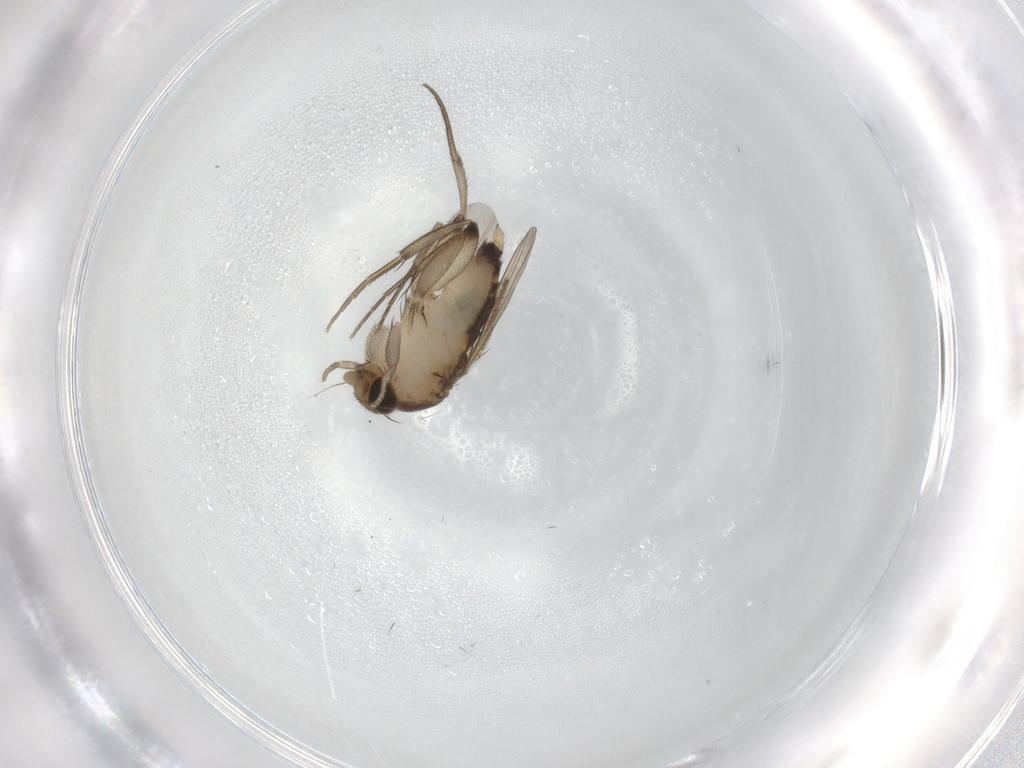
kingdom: Animalia
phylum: Arthropoda
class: Insecta
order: Diptera
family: Phoridae
